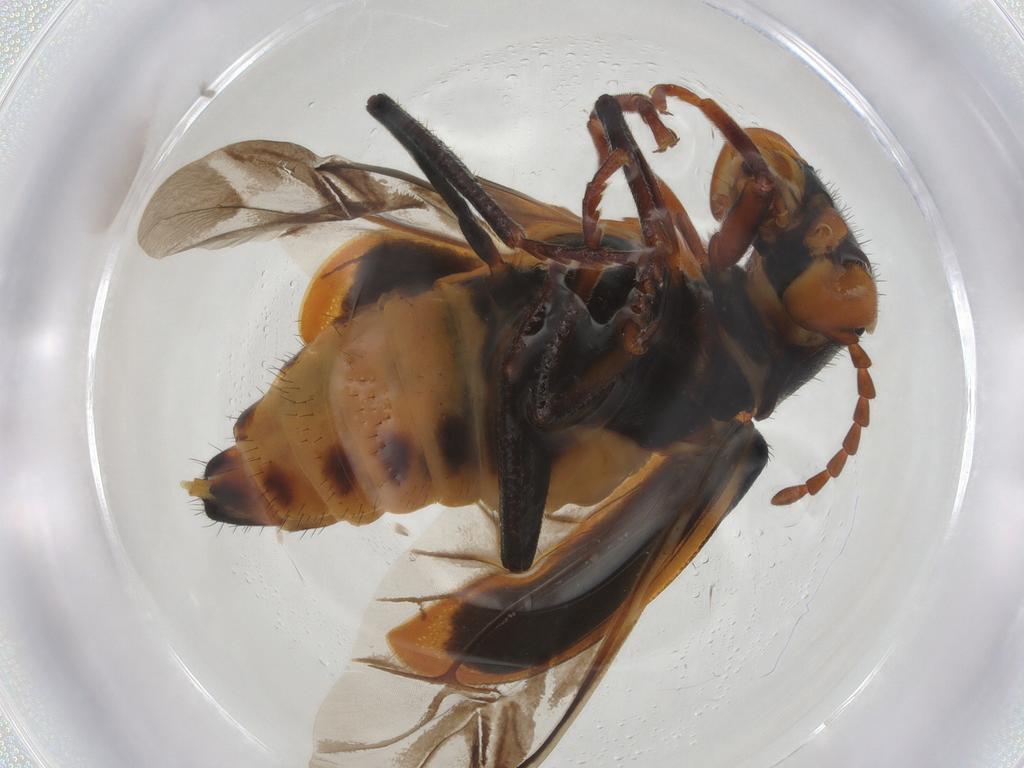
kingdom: Animalia
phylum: Arthropoda
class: Insecta
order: Coleoptera
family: Melyridae
